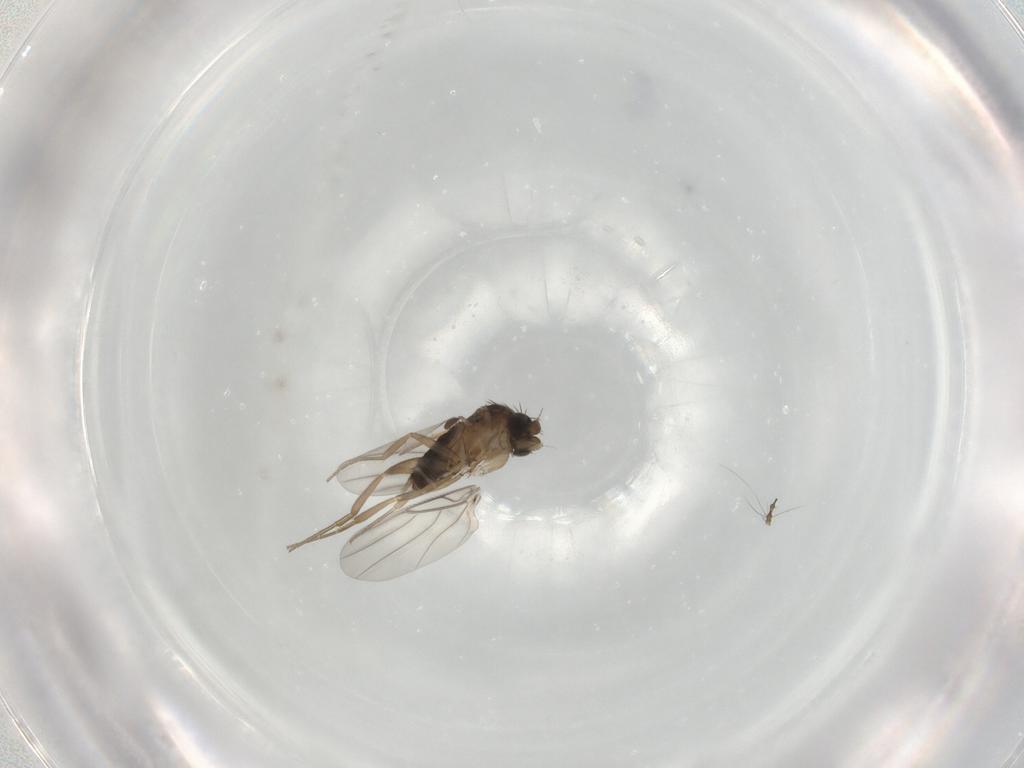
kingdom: Animalia
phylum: Arthropoda
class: Insecta
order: Diptera
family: Phoridae
